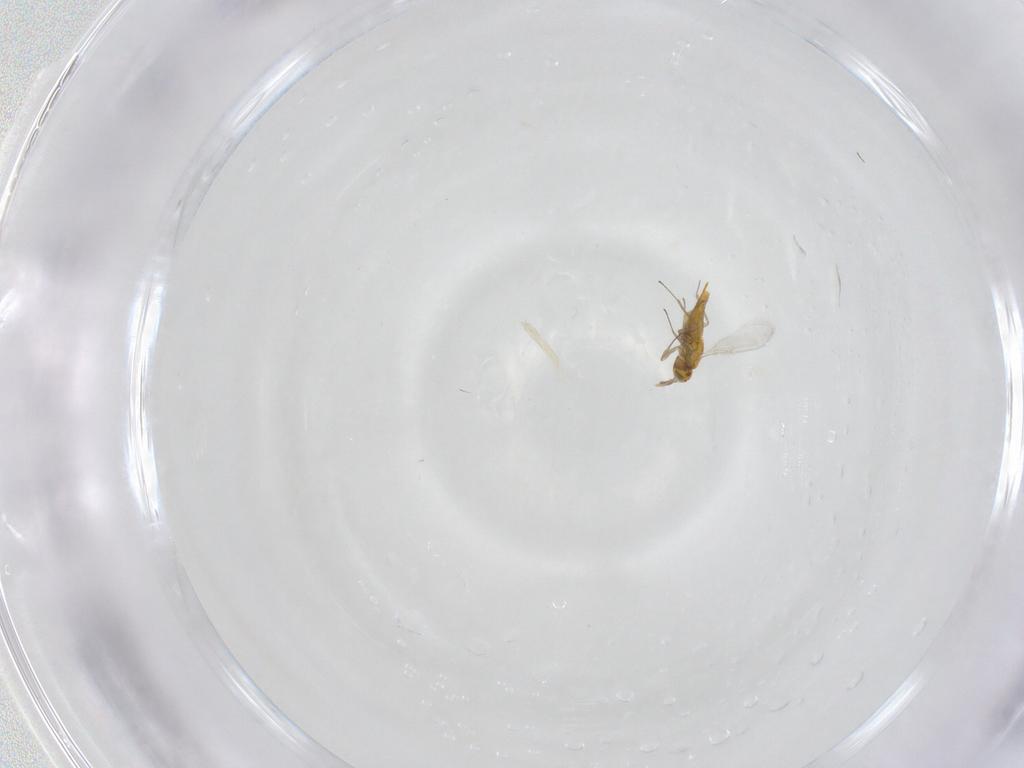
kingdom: Animalia
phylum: Arthropoda
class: Insecta
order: Hymenoptera
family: Aphelinidae
